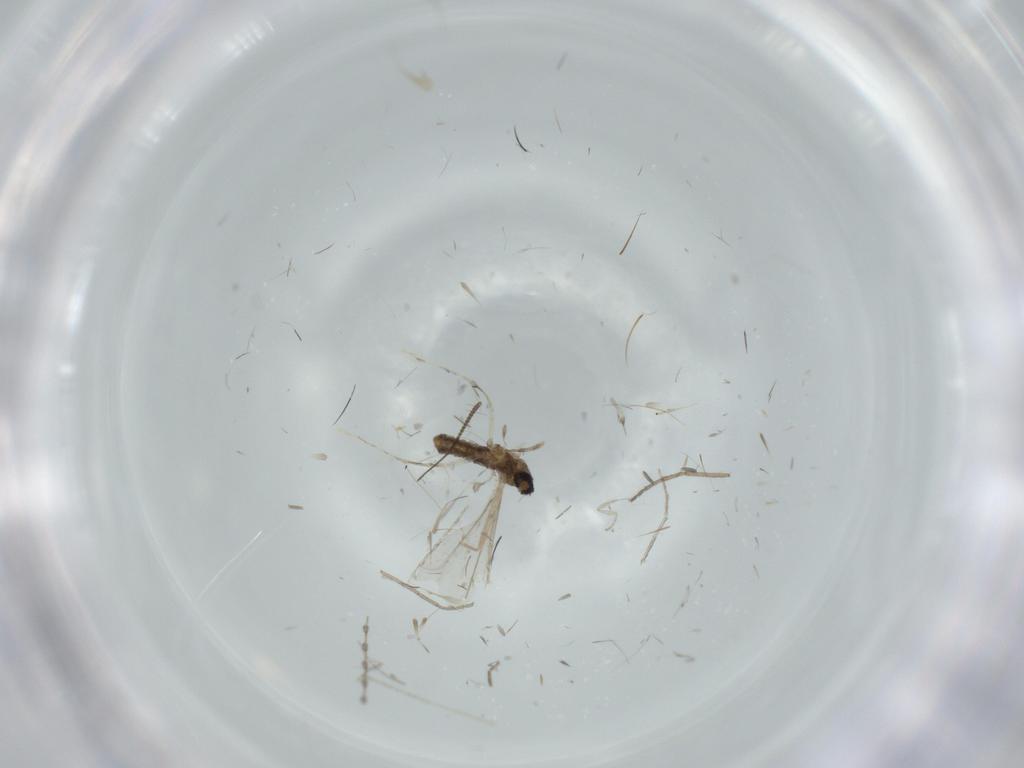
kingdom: Animalia
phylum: Arthropoda
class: Insecta
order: Diptera
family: Cecidomyiidae
